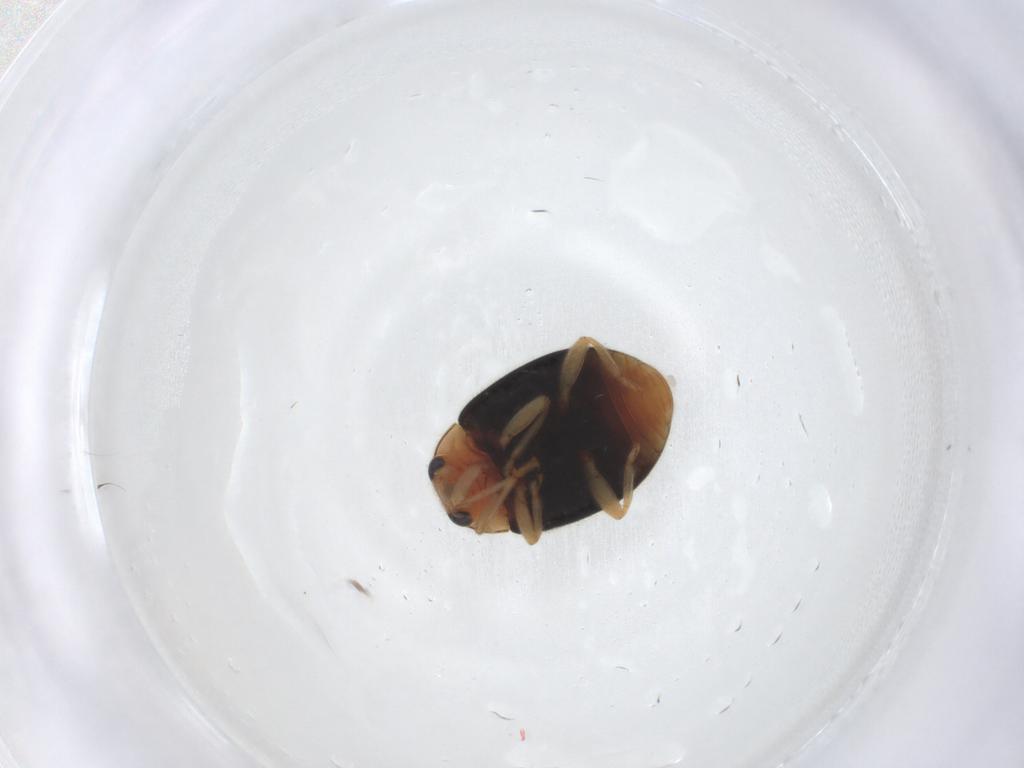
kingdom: Animalia
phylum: Arthropoda
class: Insecta
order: Coleoptera
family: Coccinellidae
